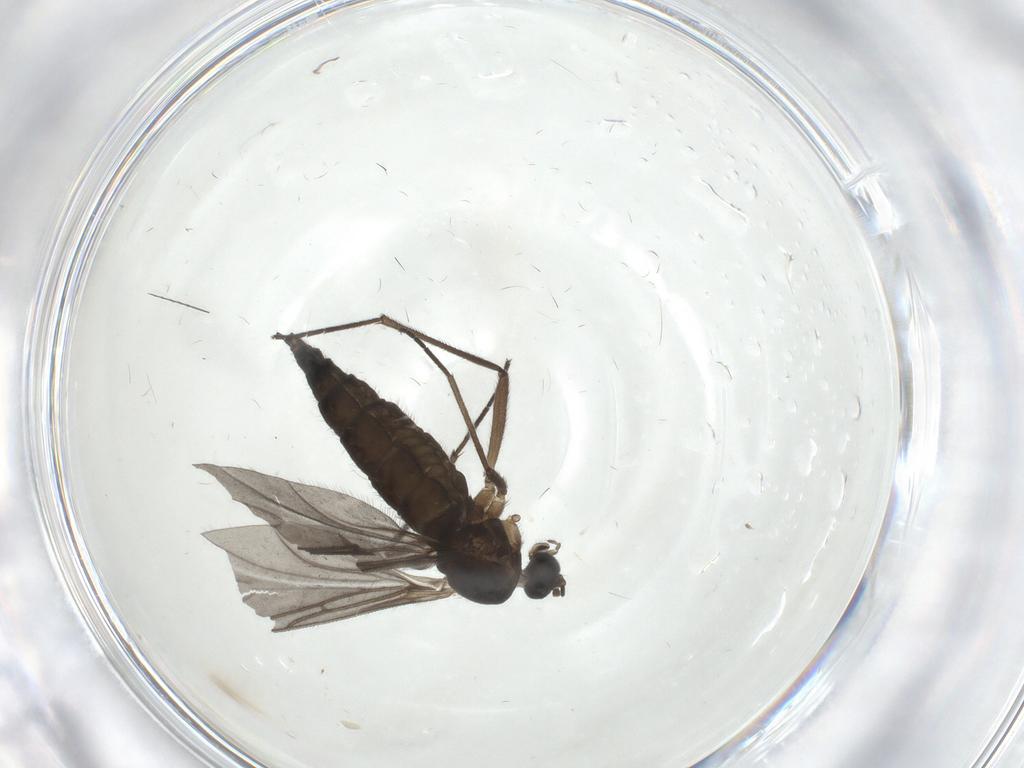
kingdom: Animalia
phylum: Arthropoda
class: Insecta
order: Diptera
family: Sciaridae
